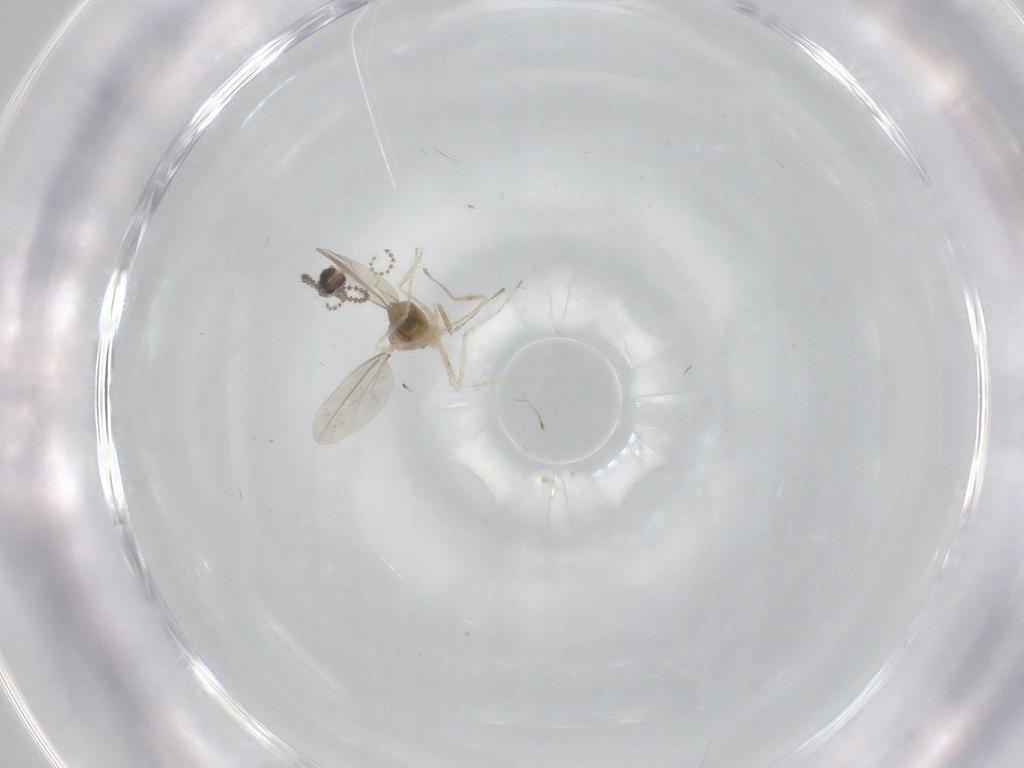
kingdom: Animalia
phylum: Arthropoda
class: Insecta
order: Diptera
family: Cecidomyiidae
